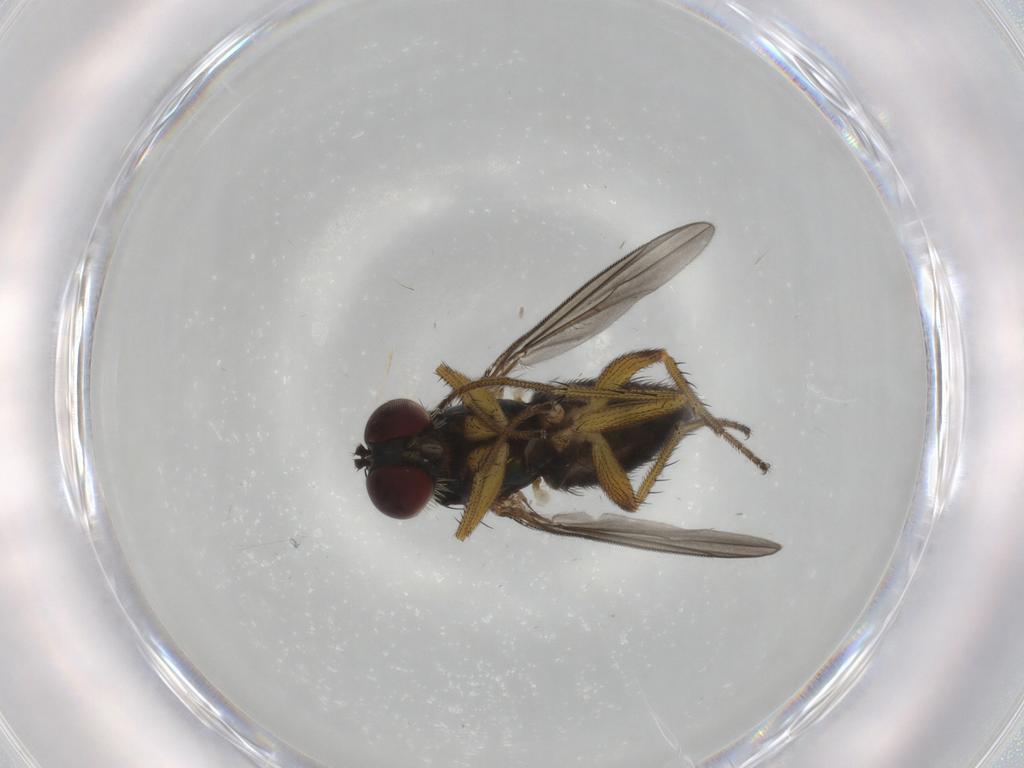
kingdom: Animalia
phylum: Arthropoda
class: Insecta
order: Diptera
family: Dolichopodidae
